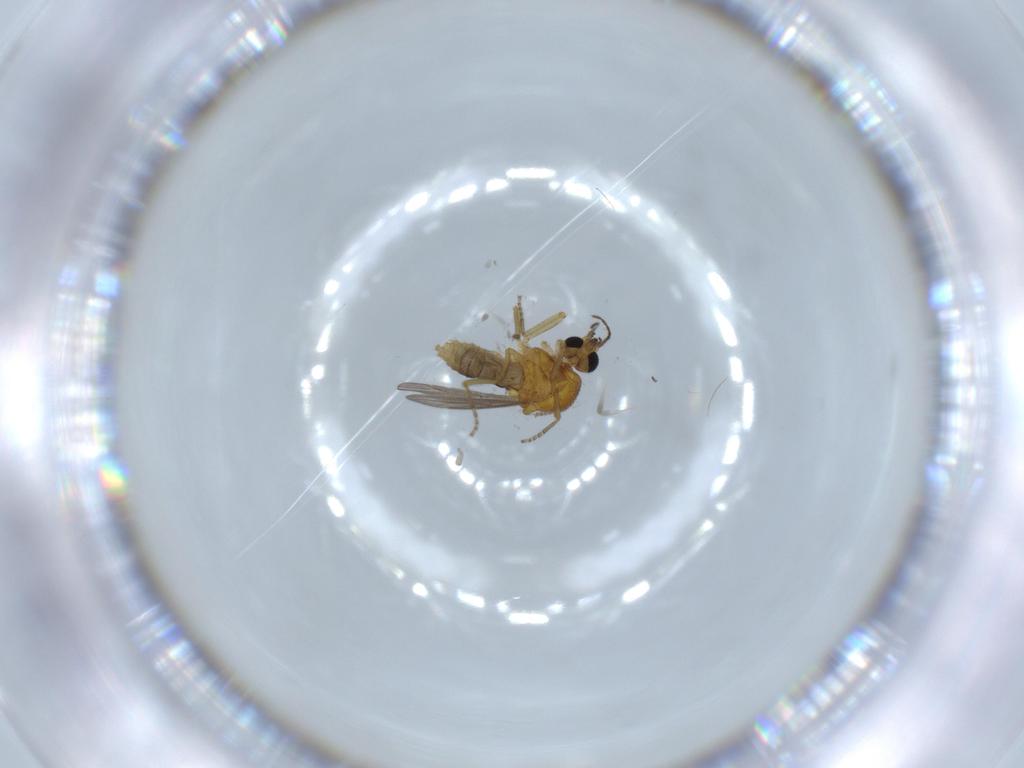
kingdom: Animalia
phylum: Arthropoda
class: Insecta
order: Diptera
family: Ceratopogonidae
